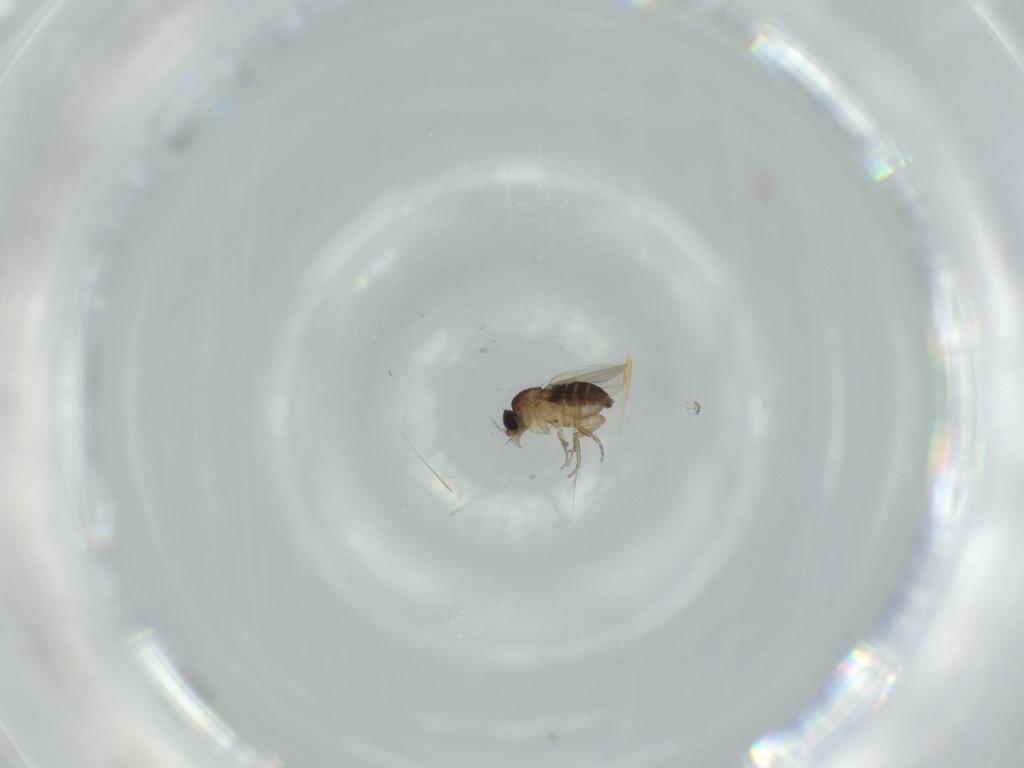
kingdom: Animalia
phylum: Arthropoda
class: Insecta
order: Diptera
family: Phoridae
